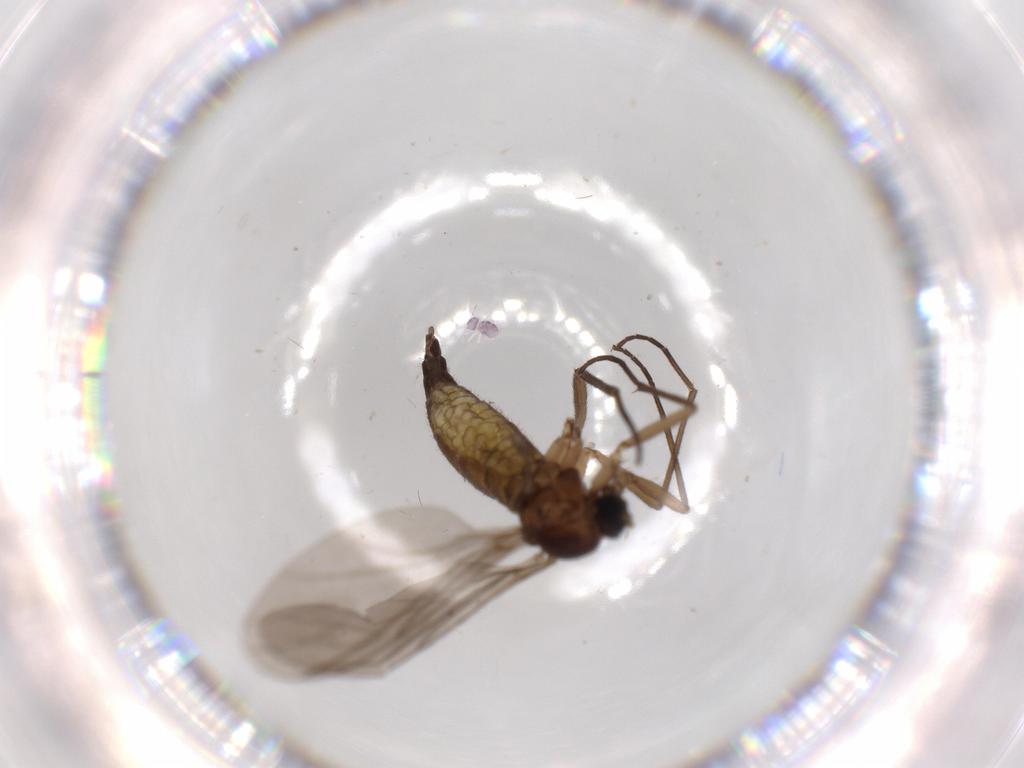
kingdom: Animalia
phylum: Arthropoda
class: Insecta
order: Diptera
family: Sciaridae
